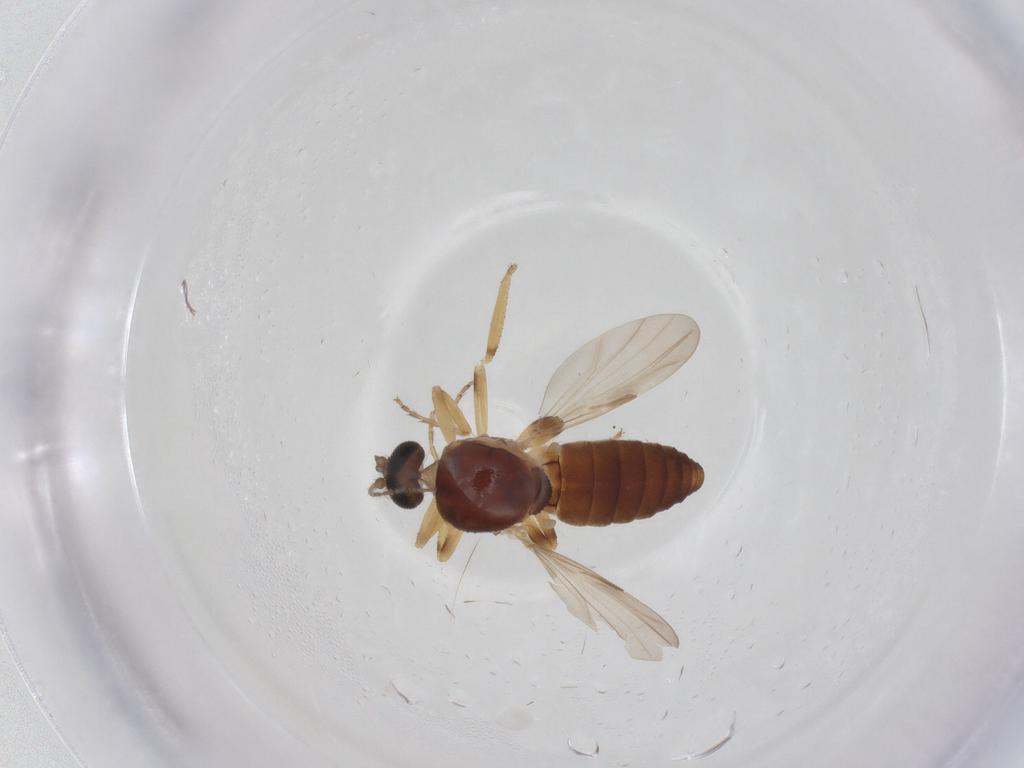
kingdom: Animalia
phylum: Arthropoda
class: Insecta
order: Diptera
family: Ceratopogonidae
